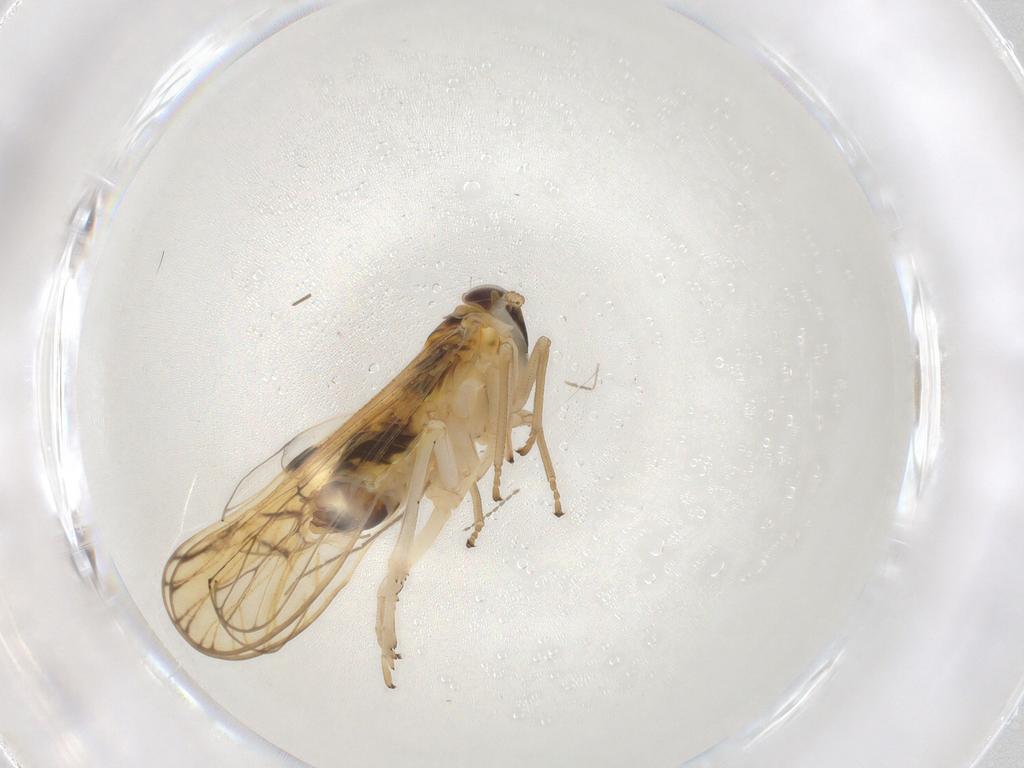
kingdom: Animalia
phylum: Arthropoda
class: Insecta
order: Hemiptera
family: Delphacidae
